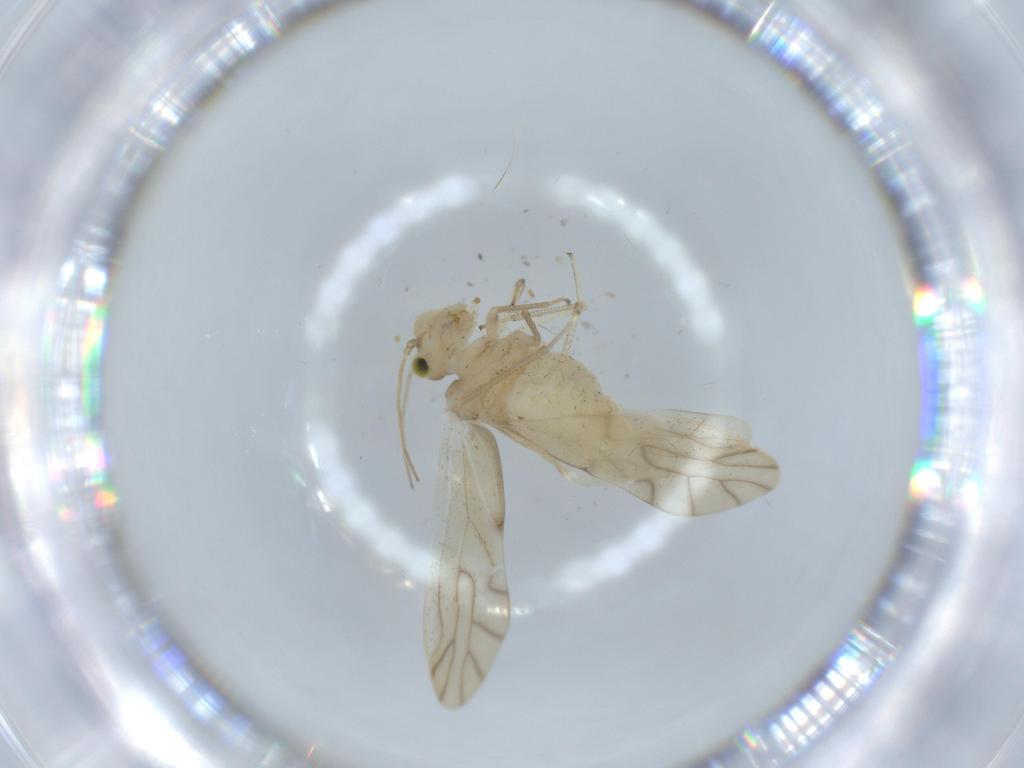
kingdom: Animalia
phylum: Arthropoda
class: Insecta
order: Psocodea
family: Caeciliusidae
